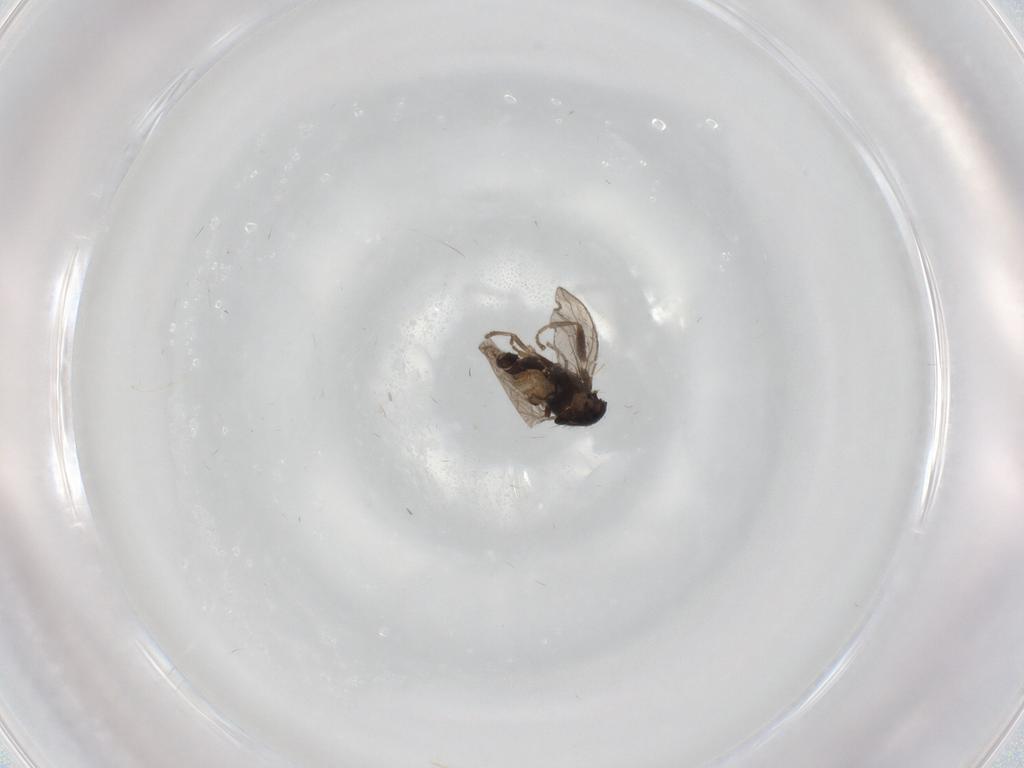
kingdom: Animalia
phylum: Arthropoda
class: Insecta
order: Diptera
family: Sphaeroceridae
